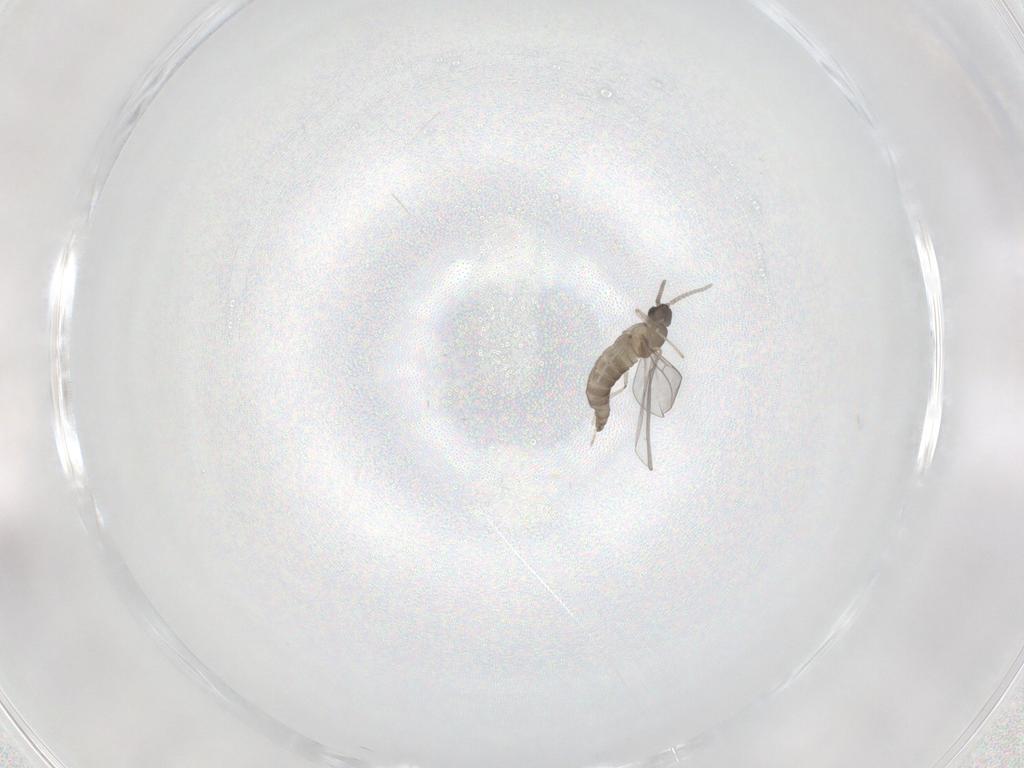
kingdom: Animalia
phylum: Arthropoda
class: Insecta
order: Diptera
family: Cecidomyiidae
